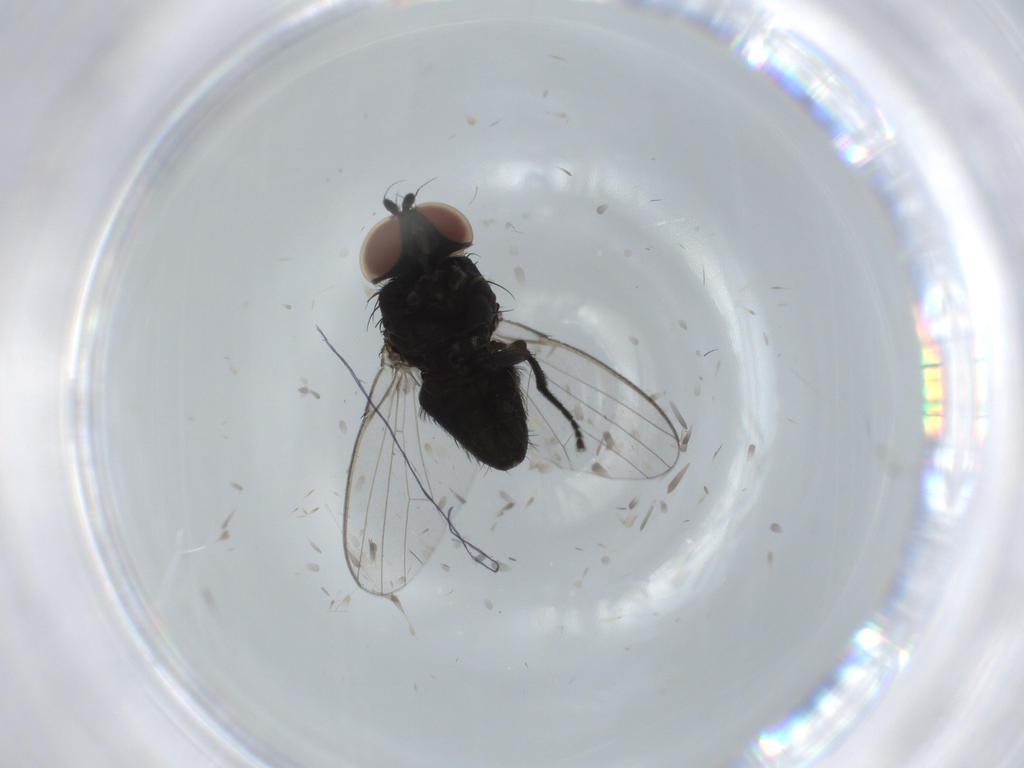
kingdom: Animalia
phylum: Arthropoda
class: Insecta
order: Diptera
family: Milichiidae
